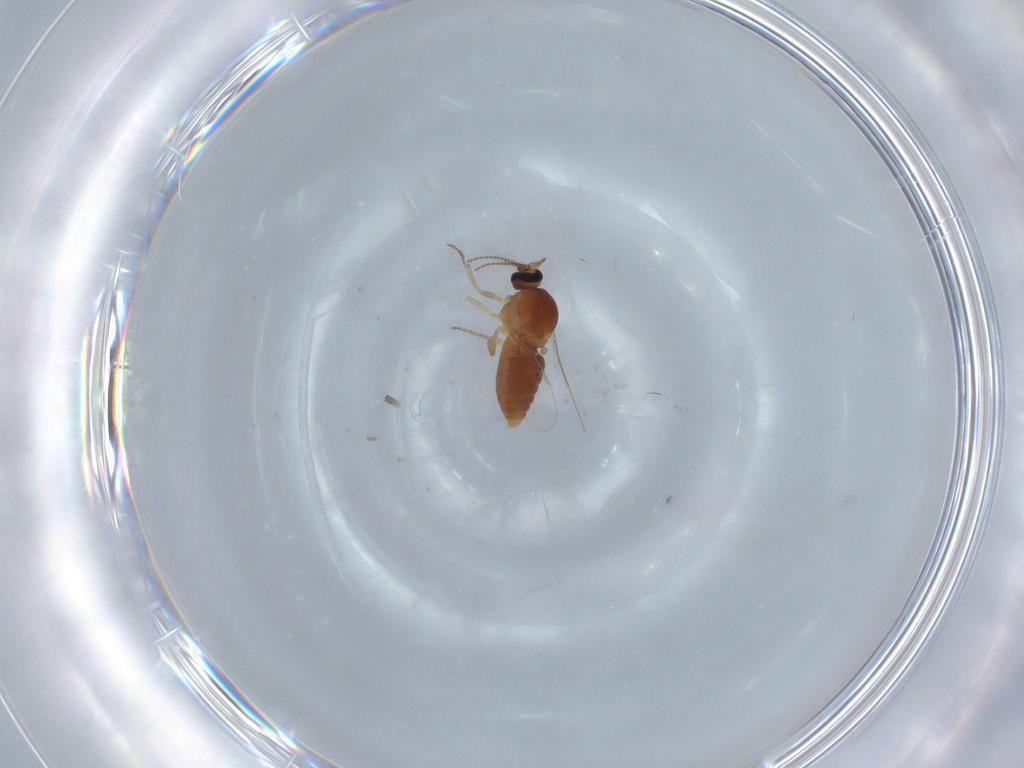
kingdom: Animalia
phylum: Arthropoda
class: Insecta
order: Diptera
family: Ceratopogonidae
